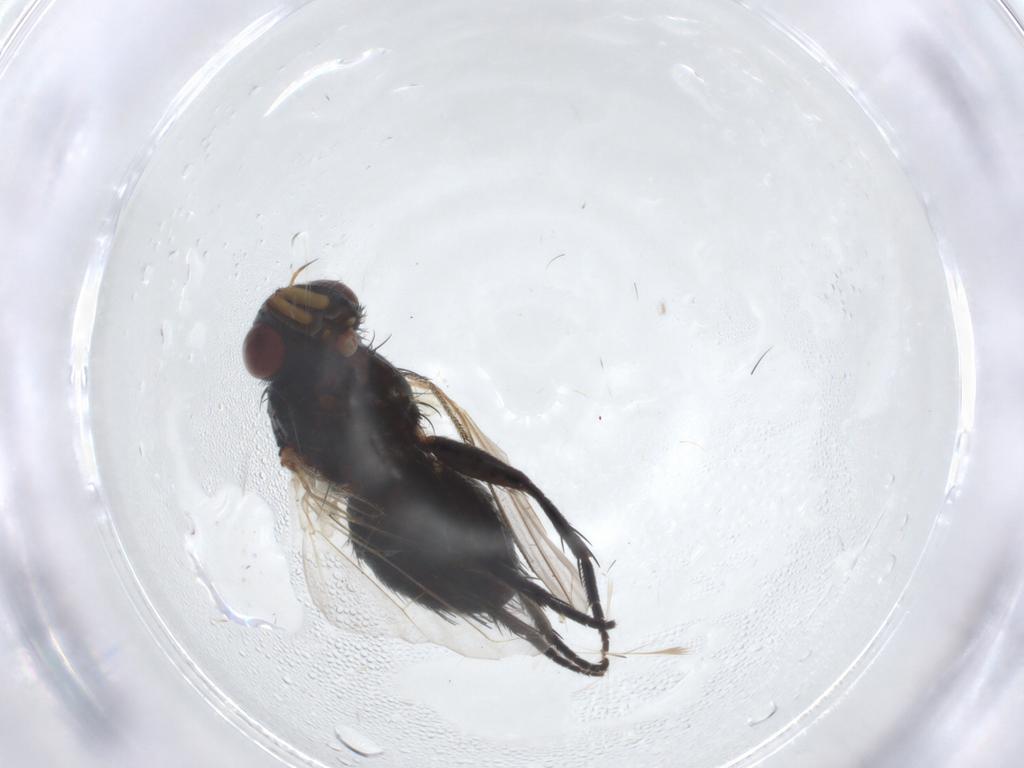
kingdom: Animalia
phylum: Arthropoda
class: Insecta
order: Diptera
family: Tachinidae
